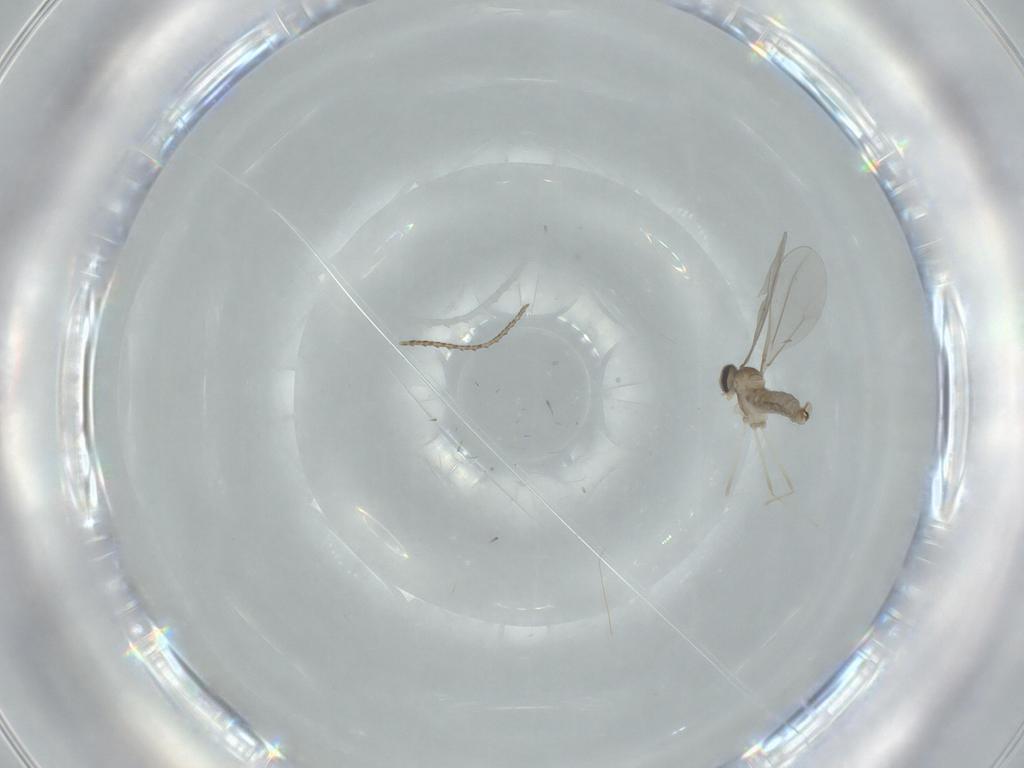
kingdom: Animalia
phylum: Arthropoda
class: Insecta
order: Diptera
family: Cecidomyiidae
